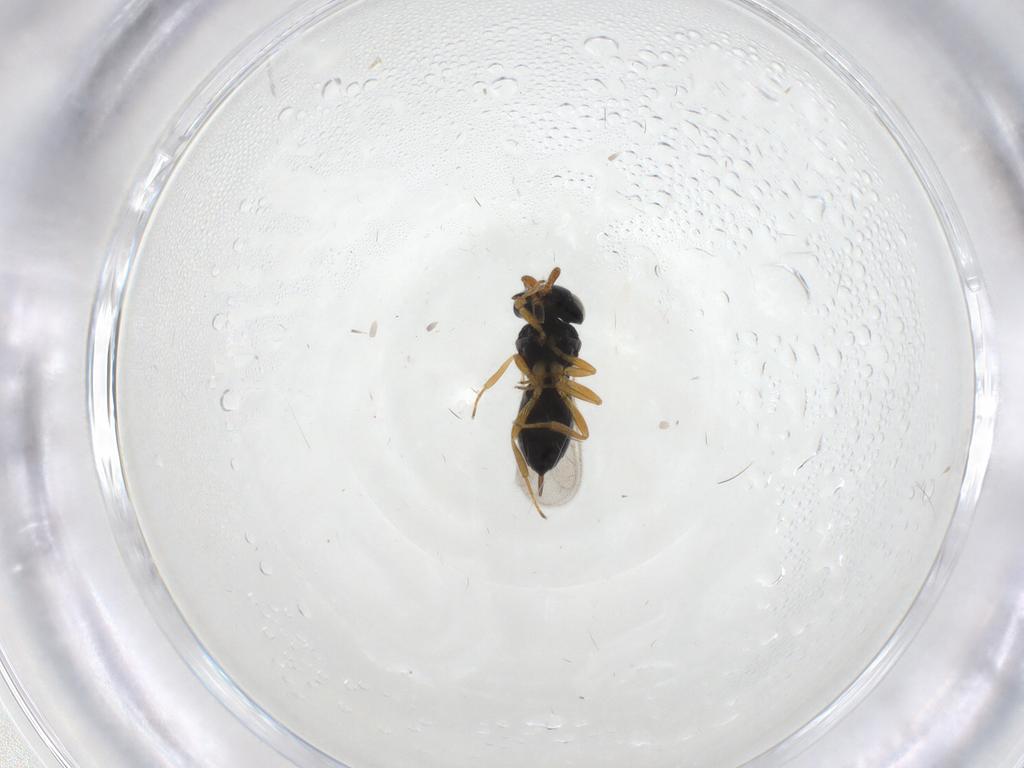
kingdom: Animalia
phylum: Arthropoda
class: Insecta
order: Hymenoptera
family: Scelionidae
